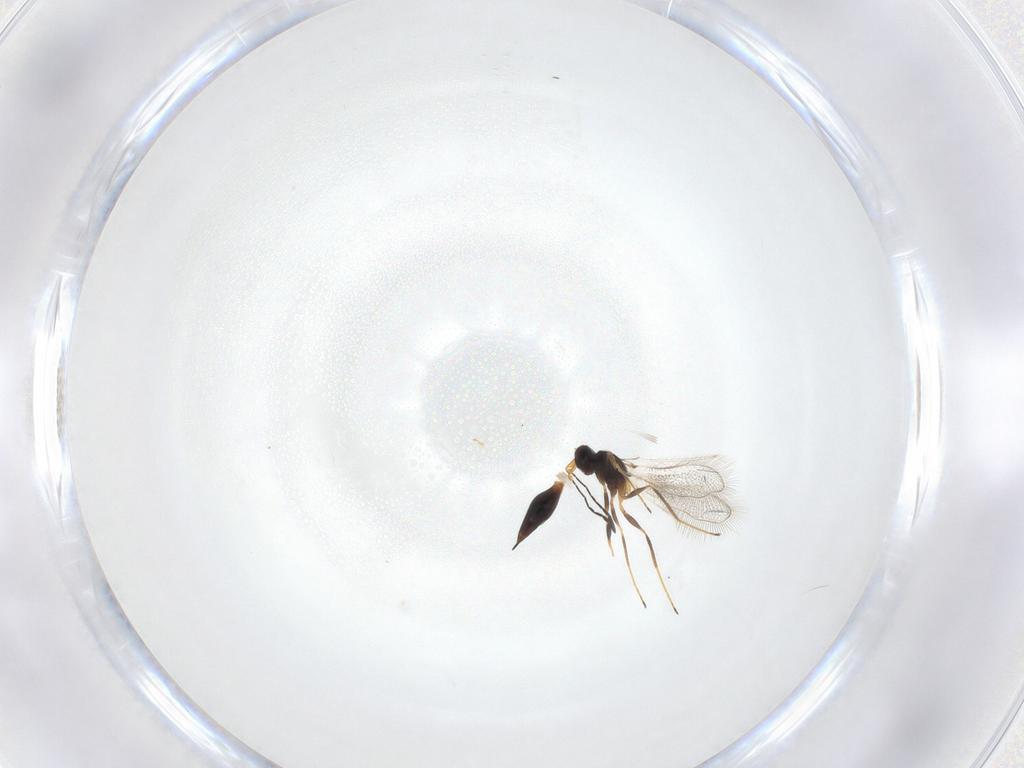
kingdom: Animalia
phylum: Arthropoda
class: Insecta
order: Hymenoptera
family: Mymaridae
